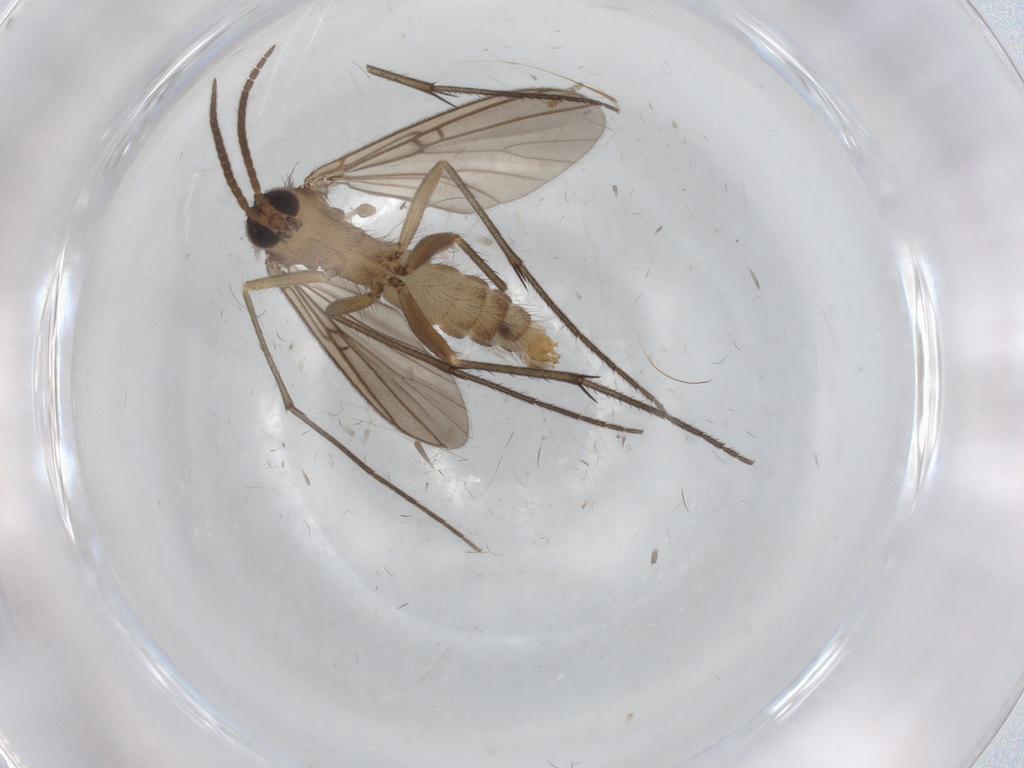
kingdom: Animalia
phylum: Arthropoda
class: Insecta
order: Diptera
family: Mycetophilidae
